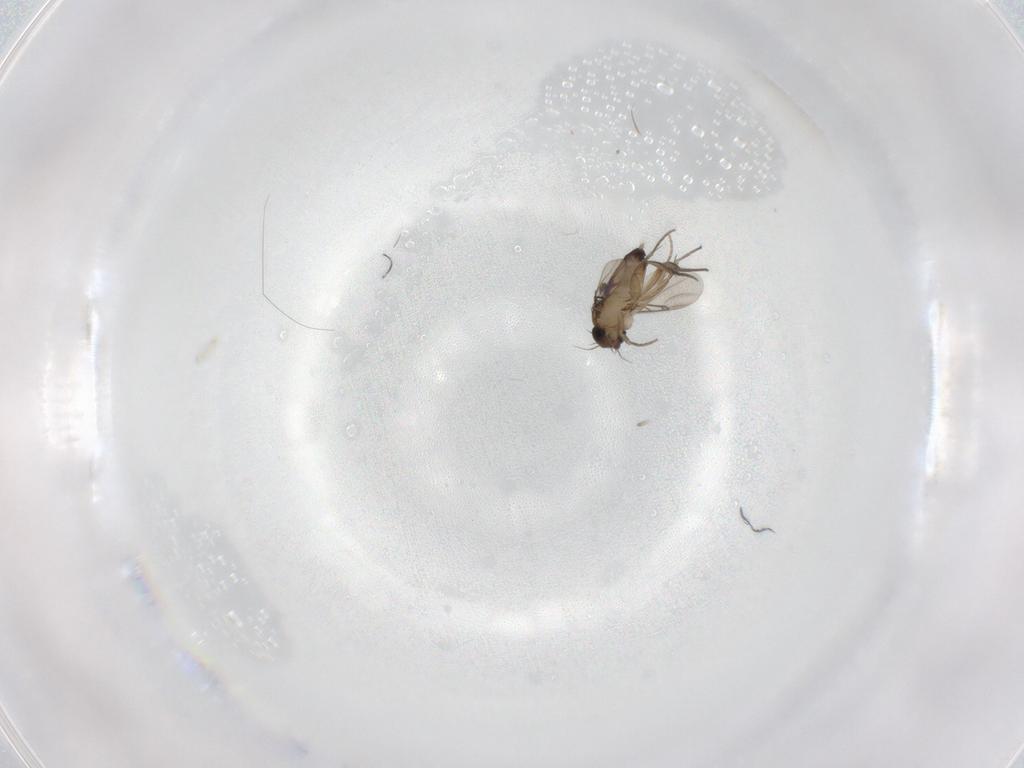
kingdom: Animalia
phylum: Arthropoda
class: Insecta
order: Diptera
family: Phoridae
